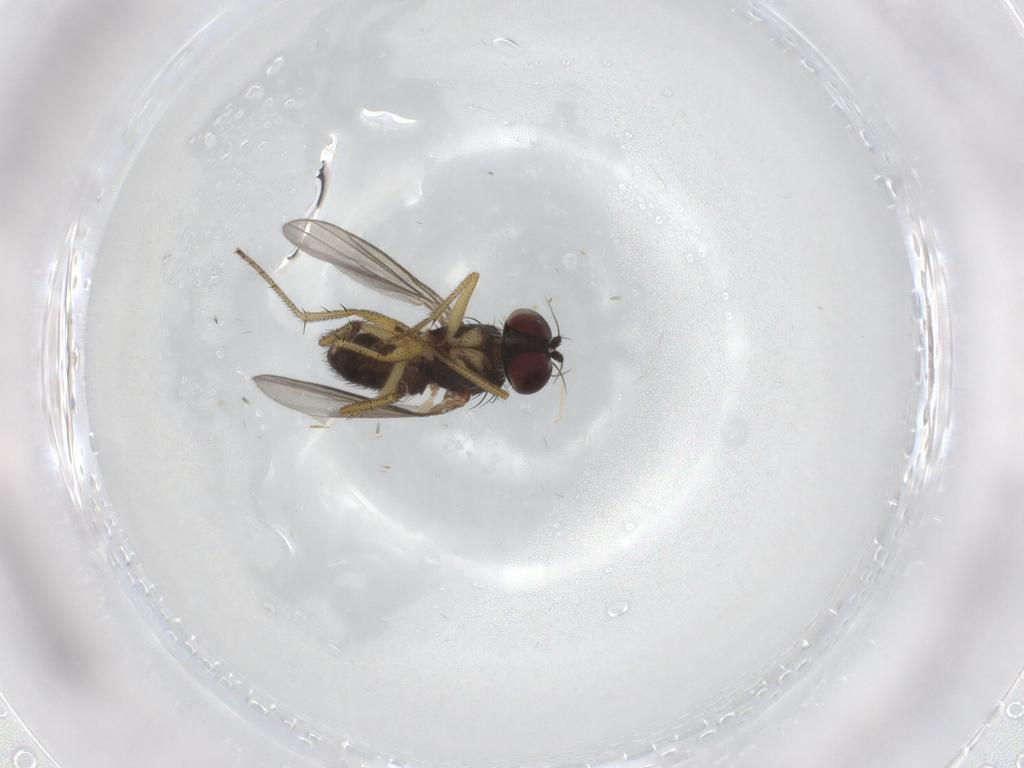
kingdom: Animalia
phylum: Arthropoda
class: Insecta
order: Diptera
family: Dolichopodidae
